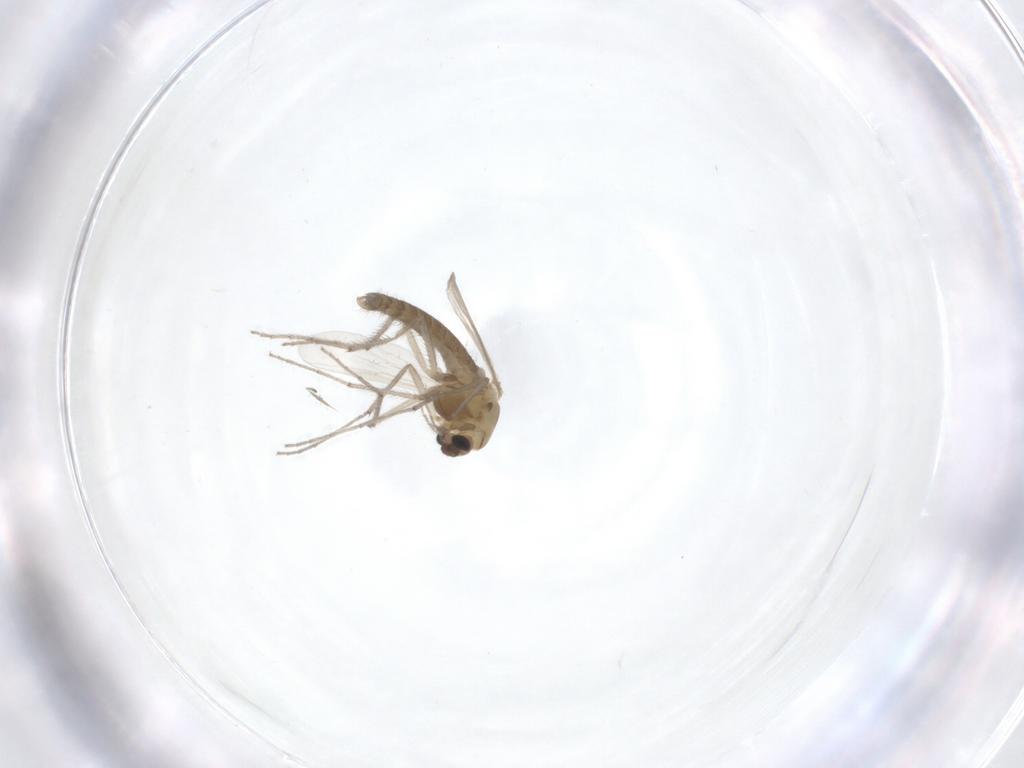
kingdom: Animalia
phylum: Arthropoda
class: Insecta
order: Diptera
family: Chironomidae
